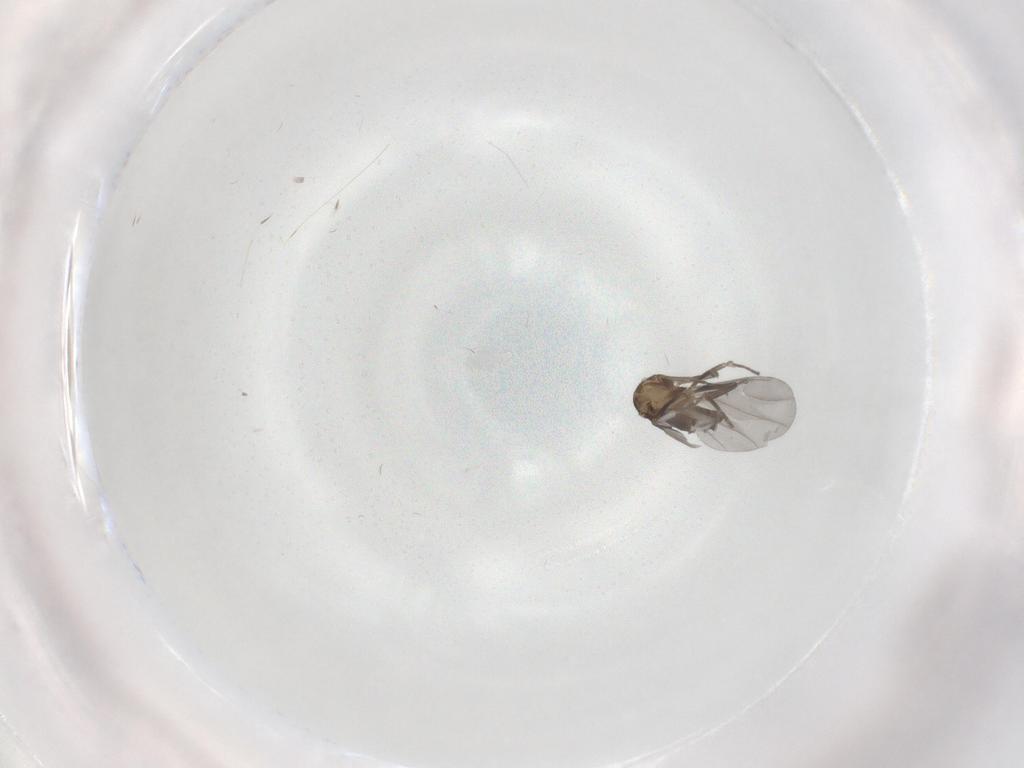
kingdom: Animalia
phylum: Arthropoda
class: Insecta
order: Diptera
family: Phoridae
